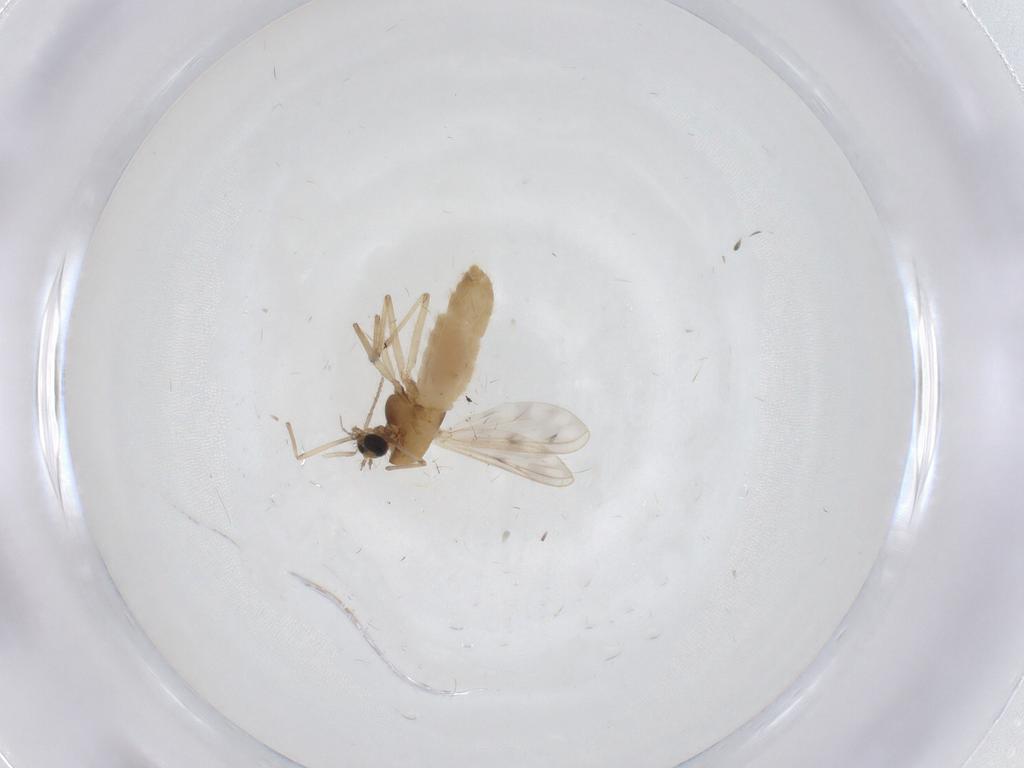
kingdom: Animalia
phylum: Arthropoda
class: Insecta
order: Diptera
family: Chironomidae
